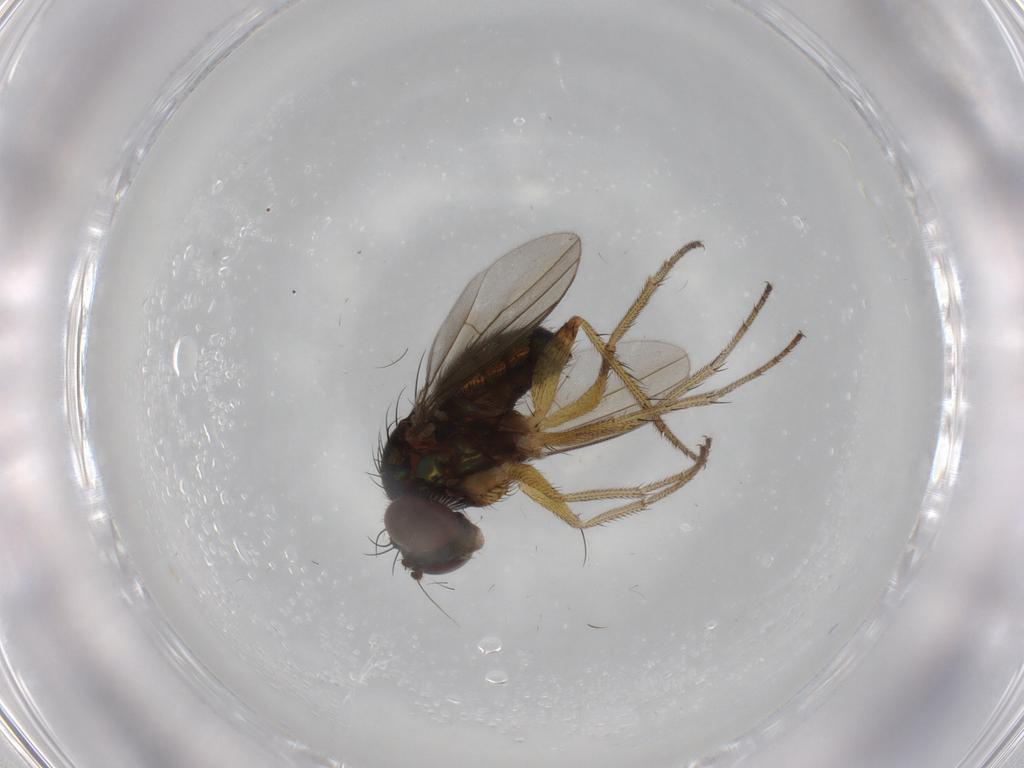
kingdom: Animalia
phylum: Arthropoda
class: Insecta
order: Diptera
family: Dolichopodidae
